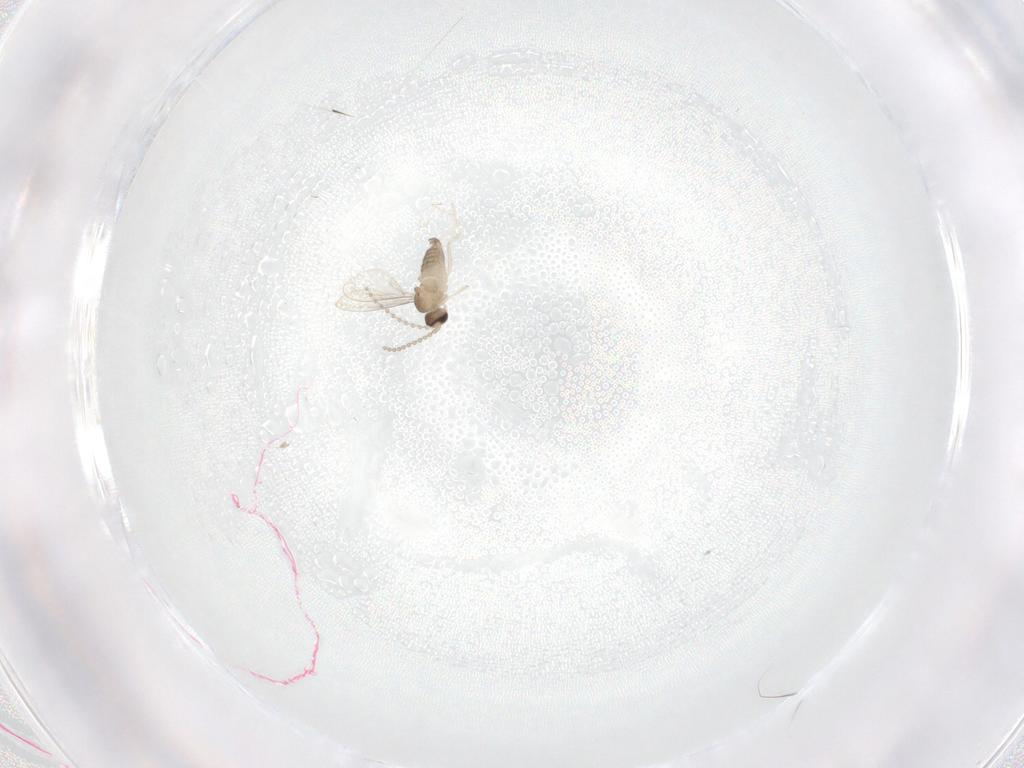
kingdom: Animalia
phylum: Arthropoda
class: Insecta
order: Diptera
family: Cecidomyiidae
